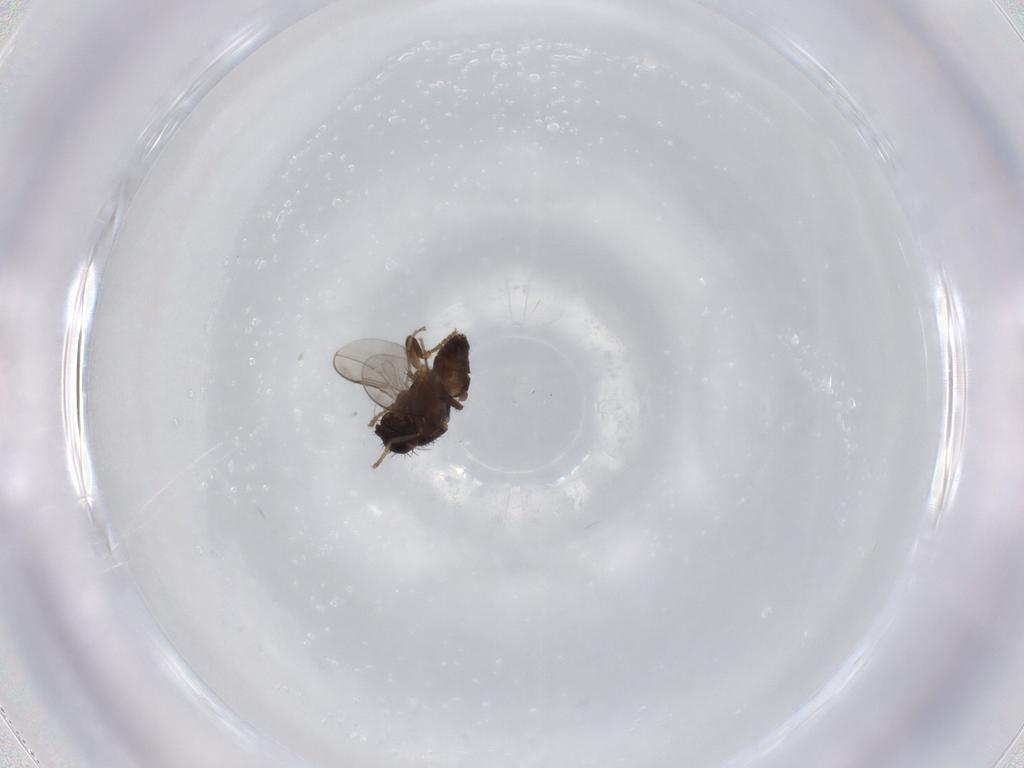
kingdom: Animalia
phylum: Arthropoda
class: Insecta
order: Diptera
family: Sphaeroceridae
